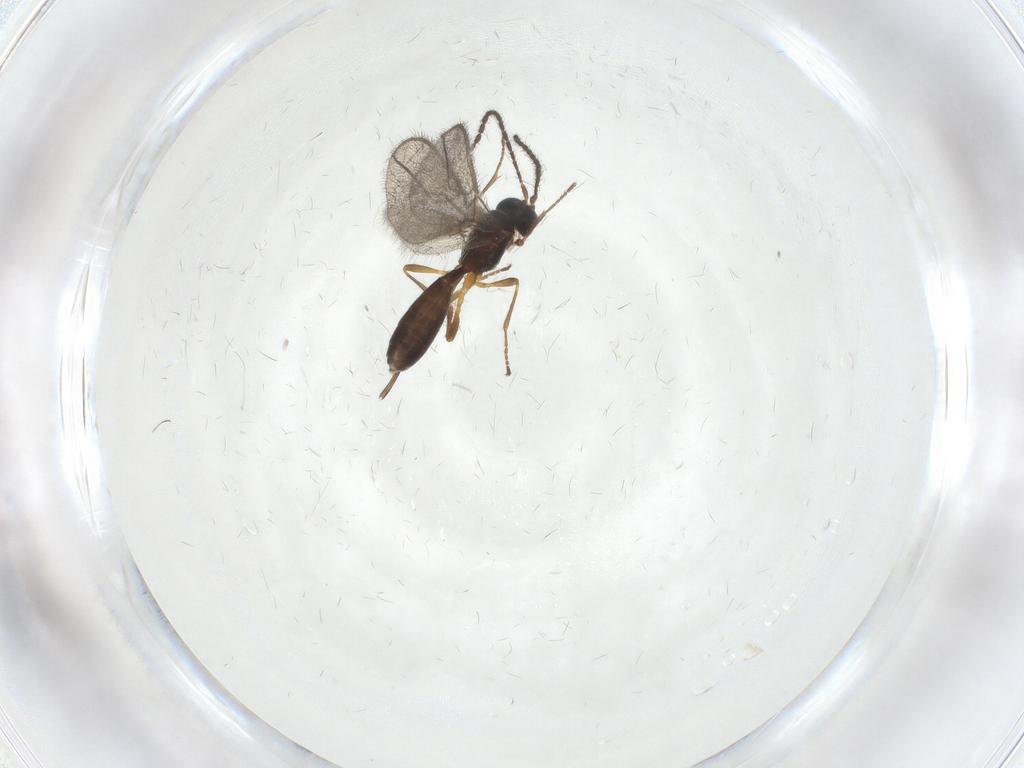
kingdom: Animalia
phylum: Arthropoda
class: Insecta
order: Hymenoptera
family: Braconidae
